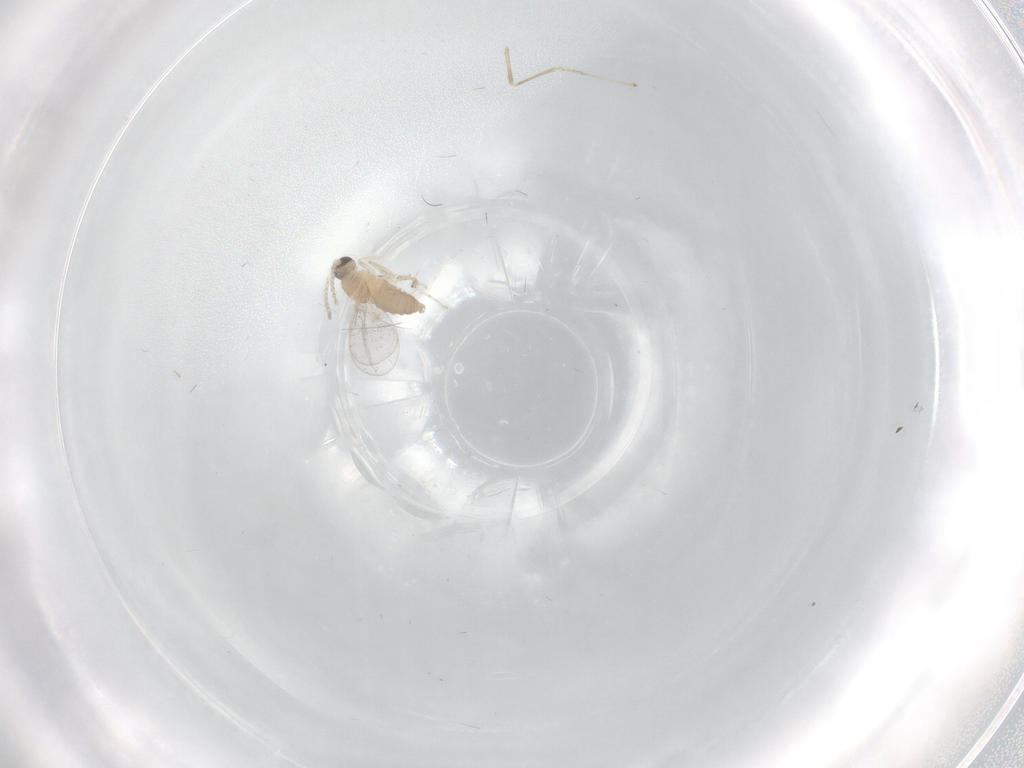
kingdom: Animalia
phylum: Arthropoda
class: Insecta
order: Diptera
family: Cecidomyiidae
